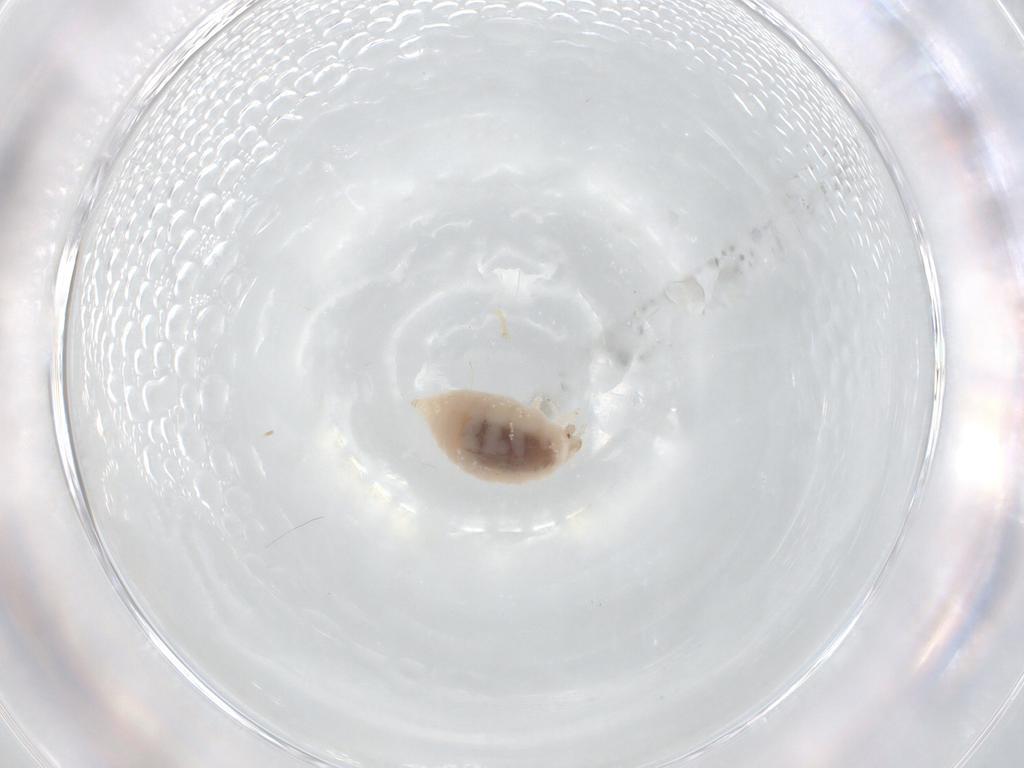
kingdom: Animalia
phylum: Arthropoda
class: Insecta
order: Neuroptera
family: Coniopterygidae
